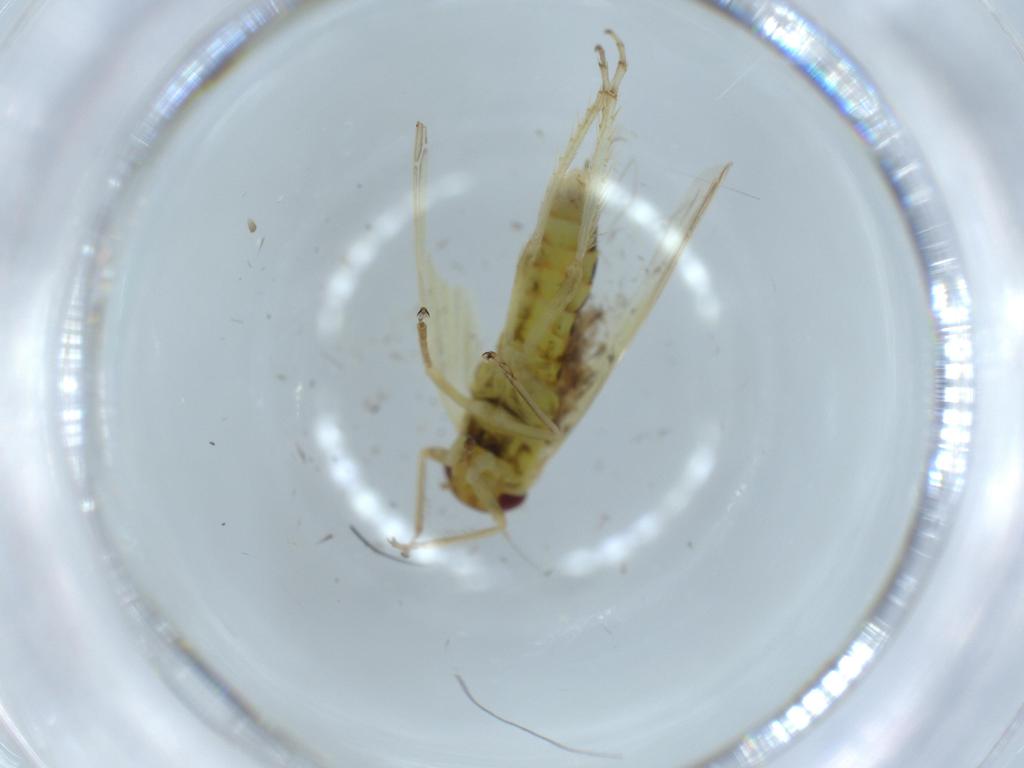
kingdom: Animalia
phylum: Arthropoda
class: Insecta
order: Hemiptera
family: Cicadellidae
